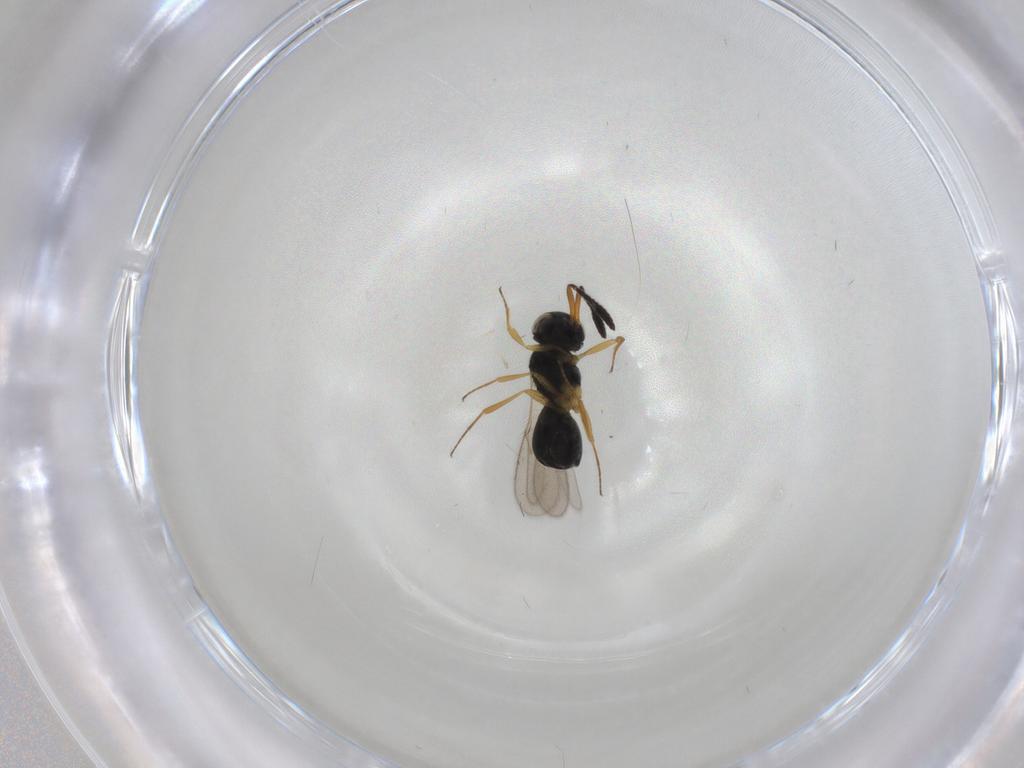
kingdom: Animalia
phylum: Arthropoda
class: Insecta
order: Hymenoptera
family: Scelionidae
